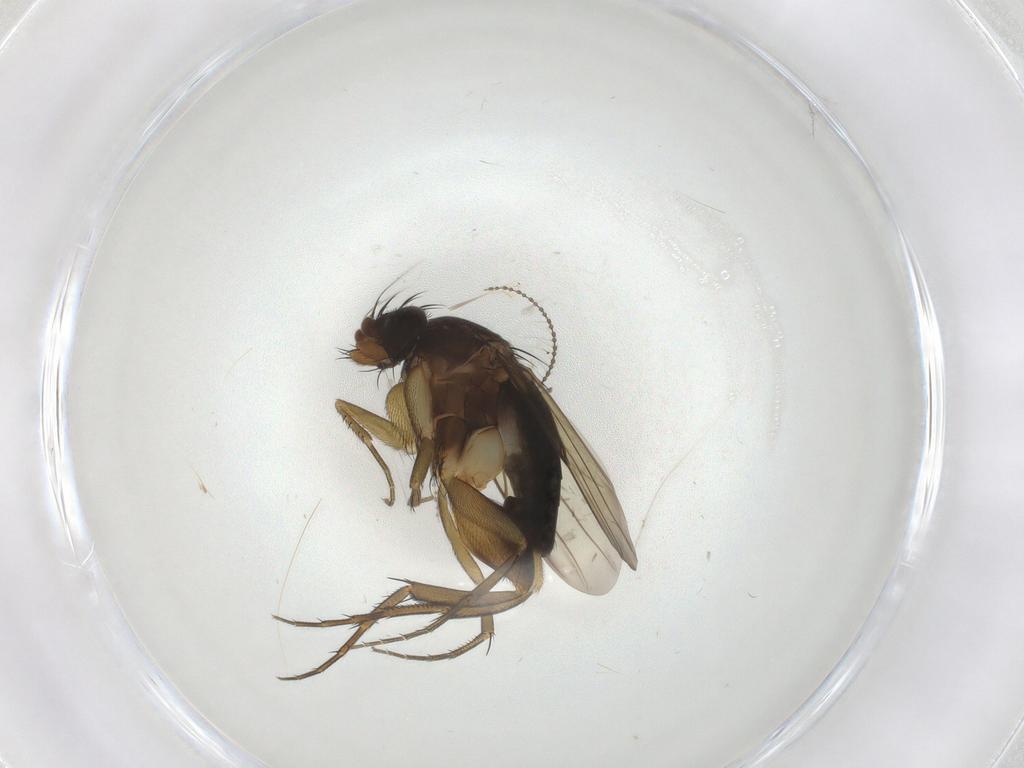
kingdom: Animalia
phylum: Arthropoda
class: Insecta
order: Diptera
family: Phoridae
